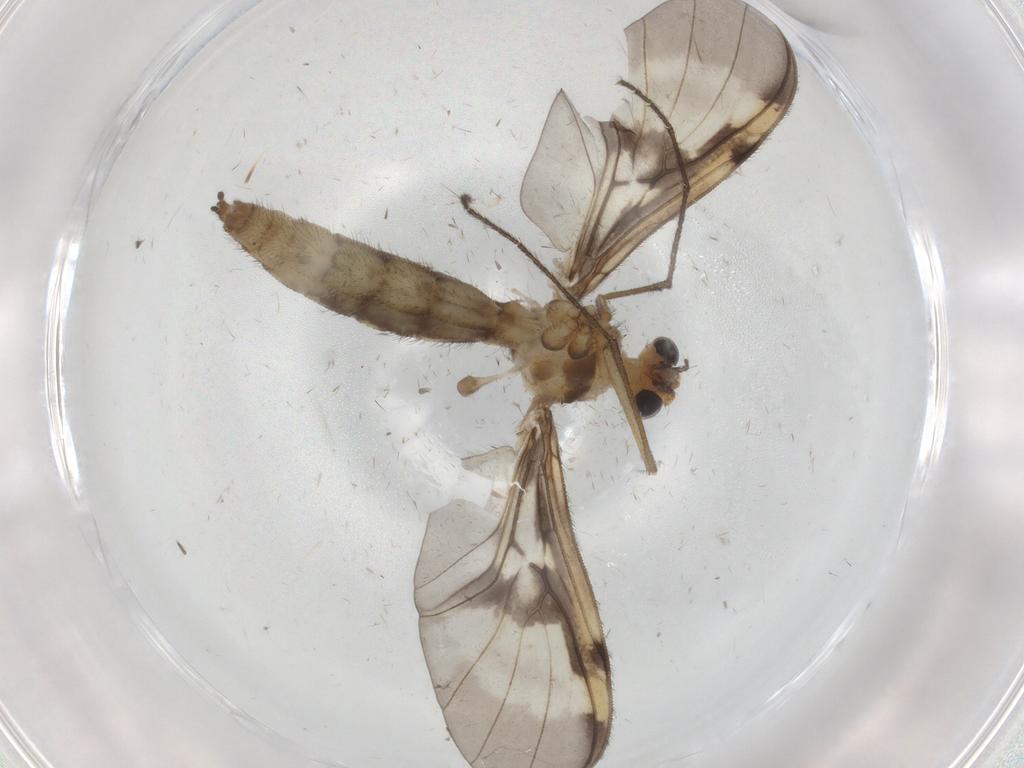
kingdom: Animalia
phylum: Arthropoda
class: Insecta
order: Diptera
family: Keroplatidae
